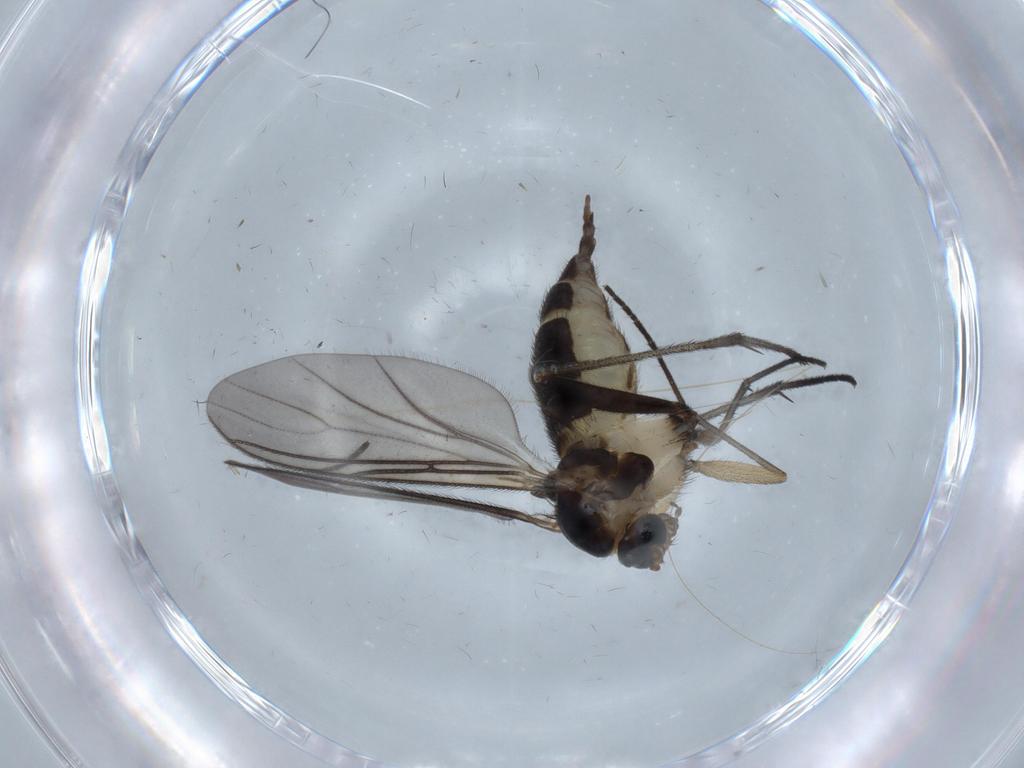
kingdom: Animalia
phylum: Arthropoda
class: Insecta
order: Diptera
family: Sciaridae
